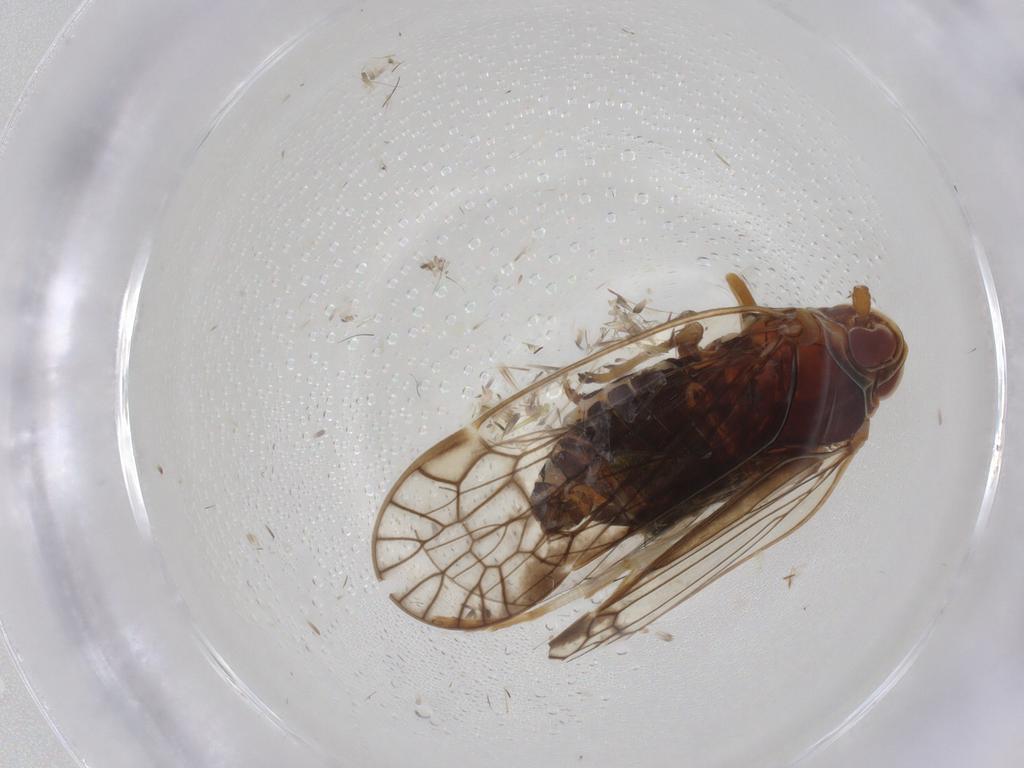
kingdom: Animalia
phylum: Arthropoda
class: Insecta
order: Hemiptera
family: Kinnaridae
